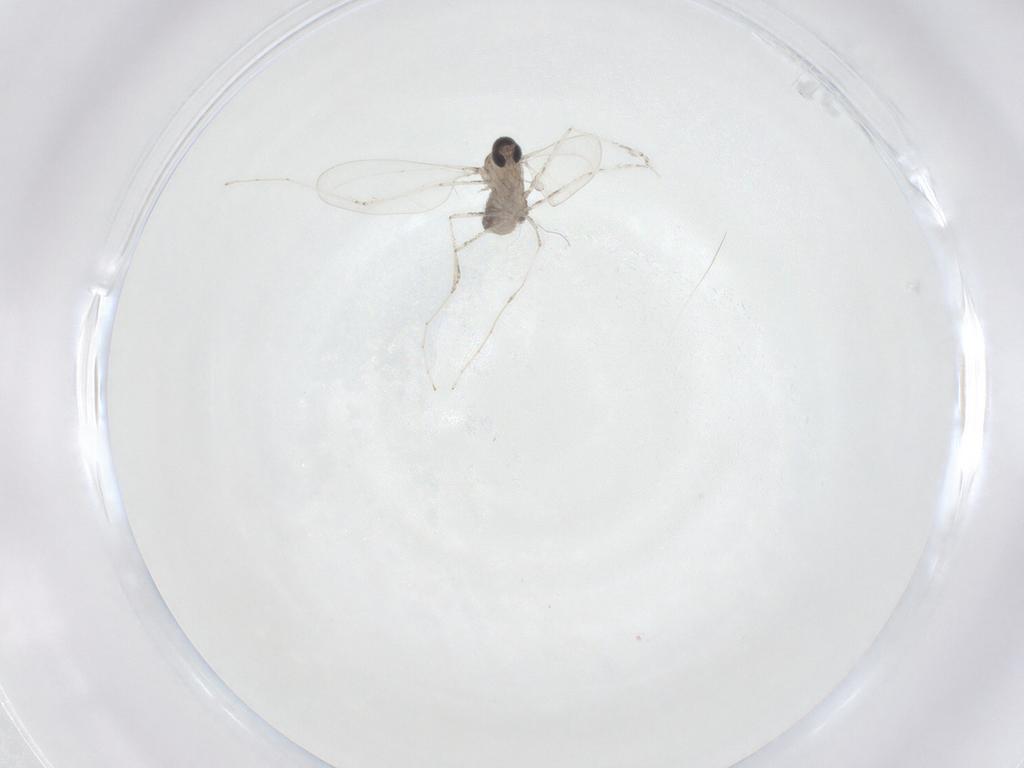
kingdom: Animalia
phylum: Arthropoda
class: Insecta
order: Diptera
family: Cecidomyiidae
